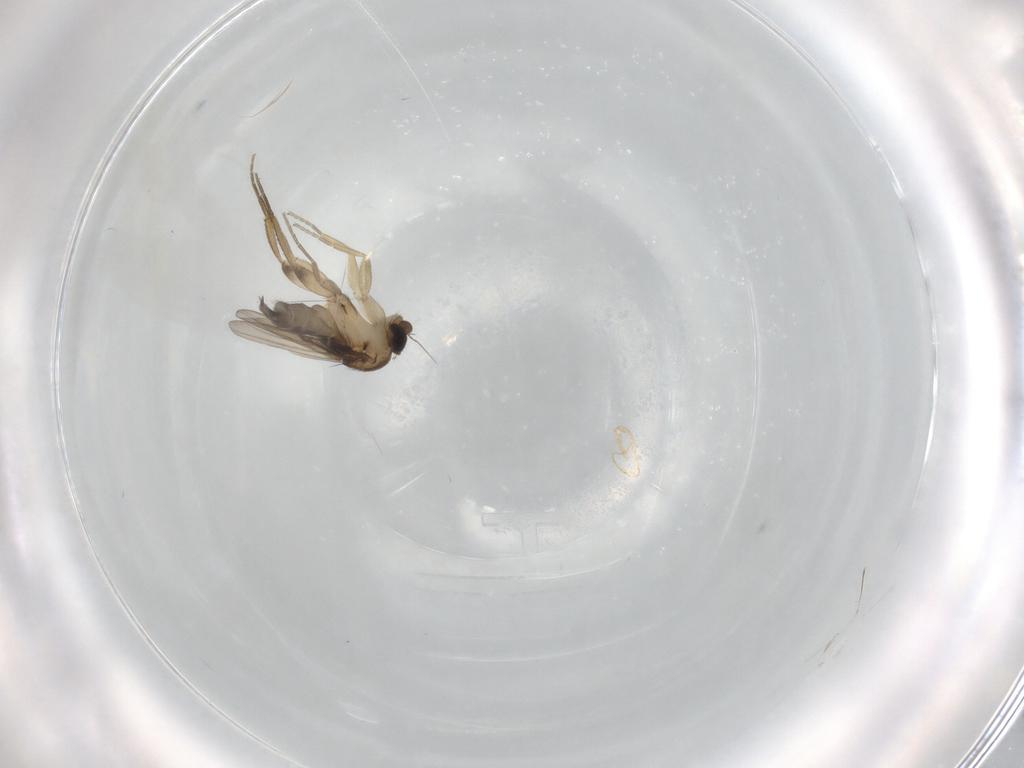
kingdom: Animalia
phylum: Arthropoda
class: Insecta
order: Diptera
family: Phoridae
